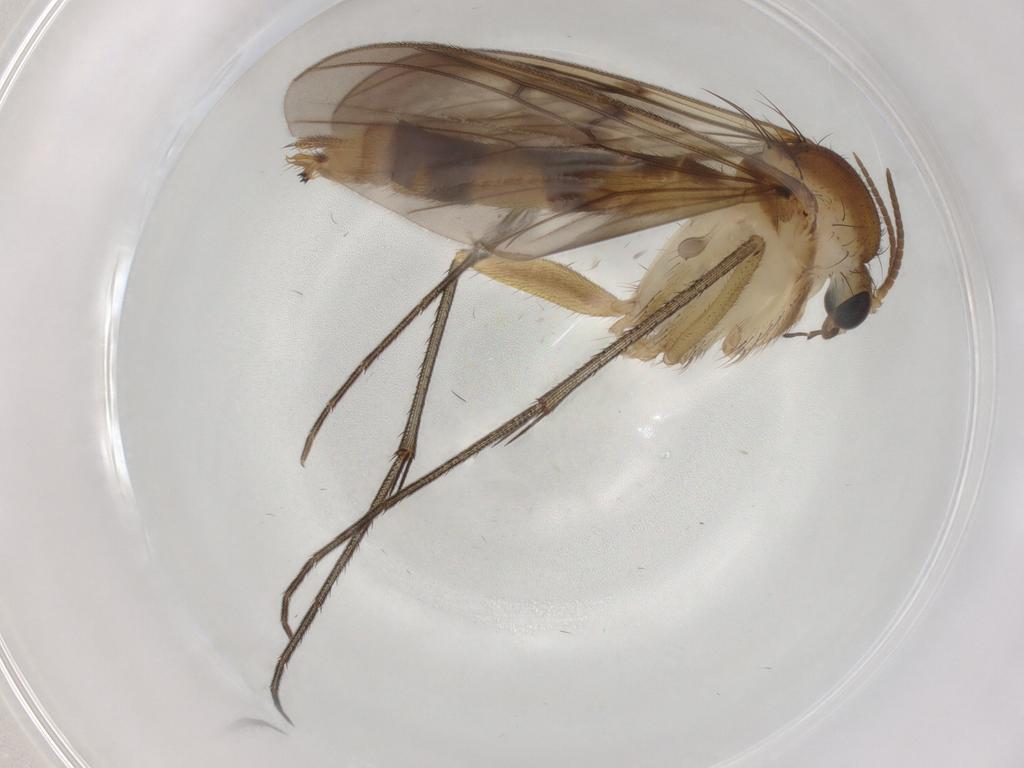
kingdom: Animalia
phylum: Arthropoda
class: Insecta
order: Diptera
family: Mycetophilidae
